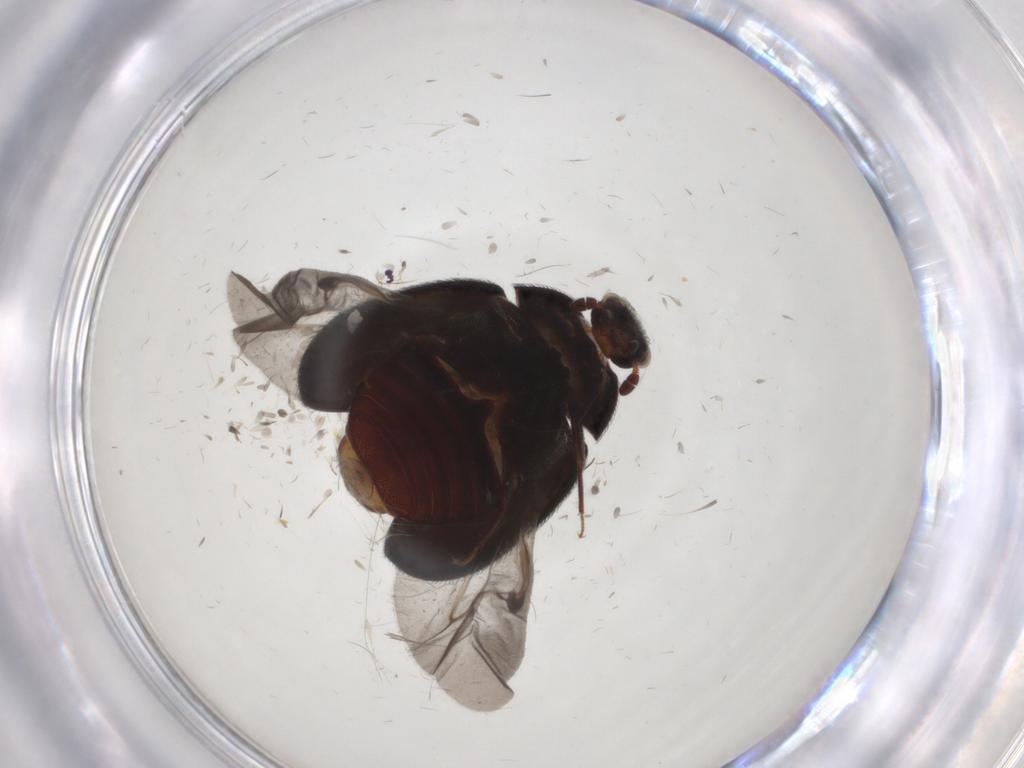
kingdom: Animalia
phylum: Arthropoda
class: Insecta
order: Coleoptera
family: Dermestidae
